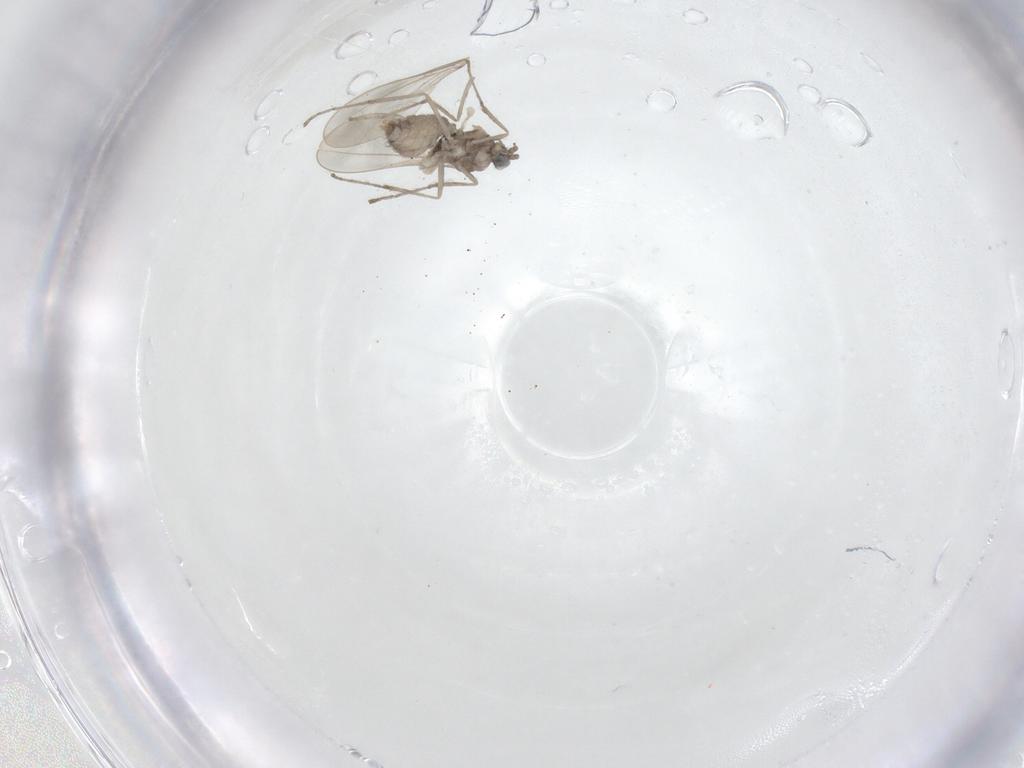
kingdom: Animalia
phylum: Arthropoda
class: Insecta
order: Diptera
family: Cecidomyiidae
